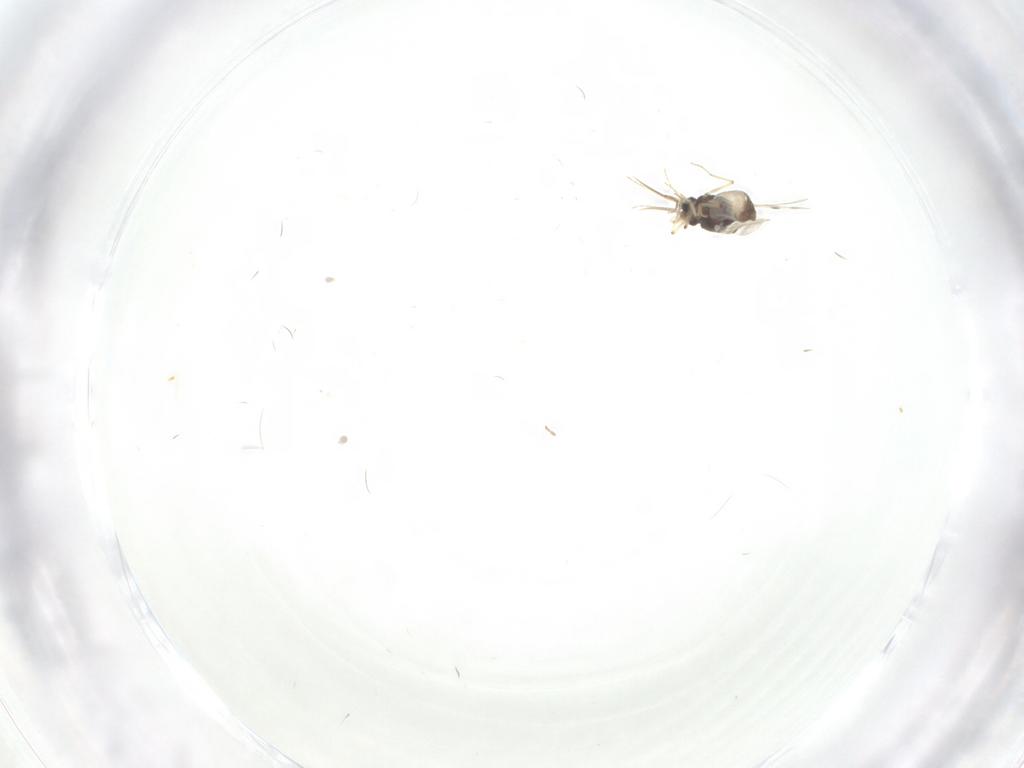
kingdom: Animalia
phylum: Arthropoda
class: Insecta
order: Diptera
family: Chironomidae
